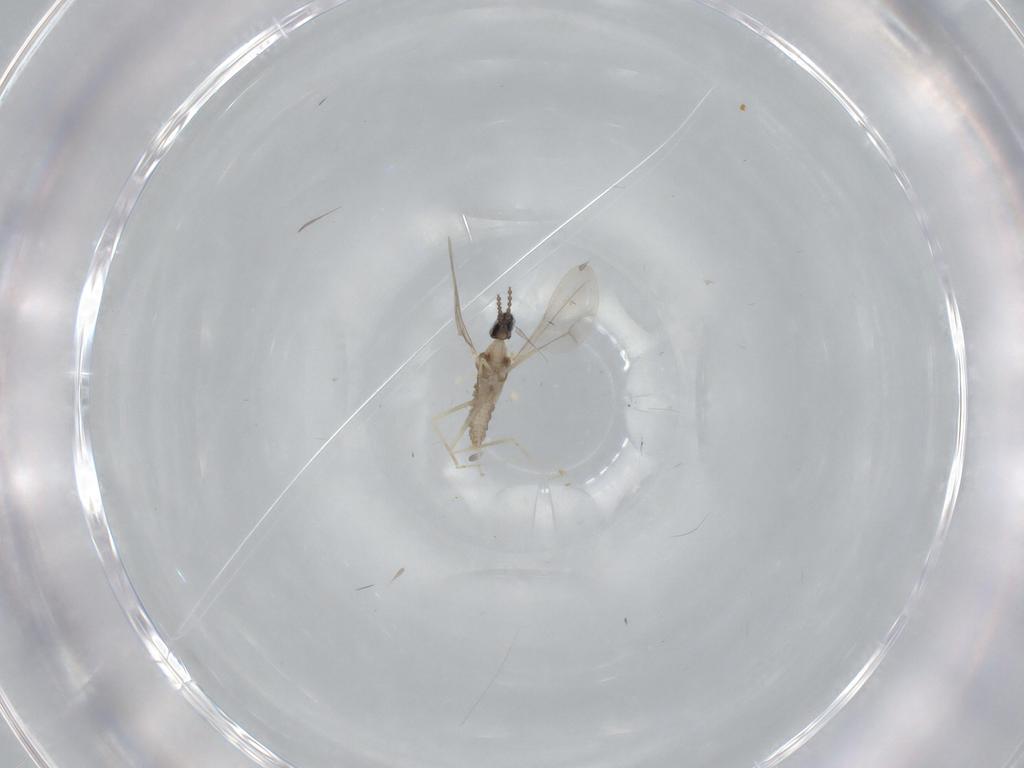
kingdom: Animalia
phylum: Arthropoda
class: Insecta
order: Diptera
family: Cecidomyiidae
